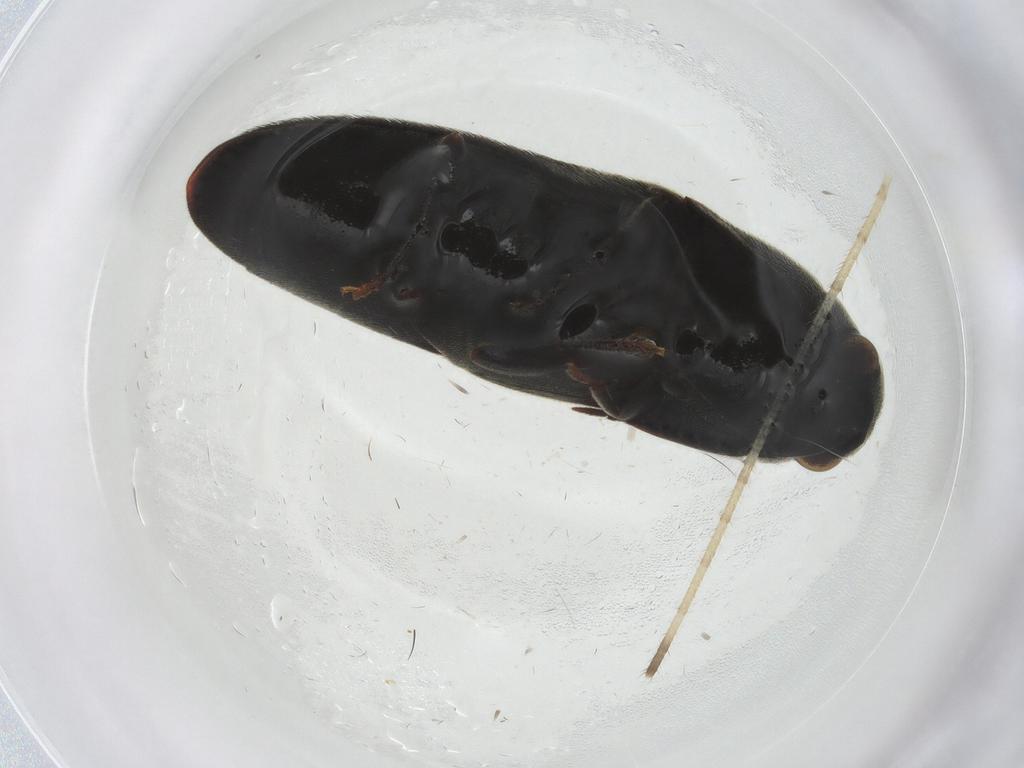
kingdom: Animalia
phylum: Arthropoda
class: Insecta
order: Coleoptera
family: Eucnemidae
